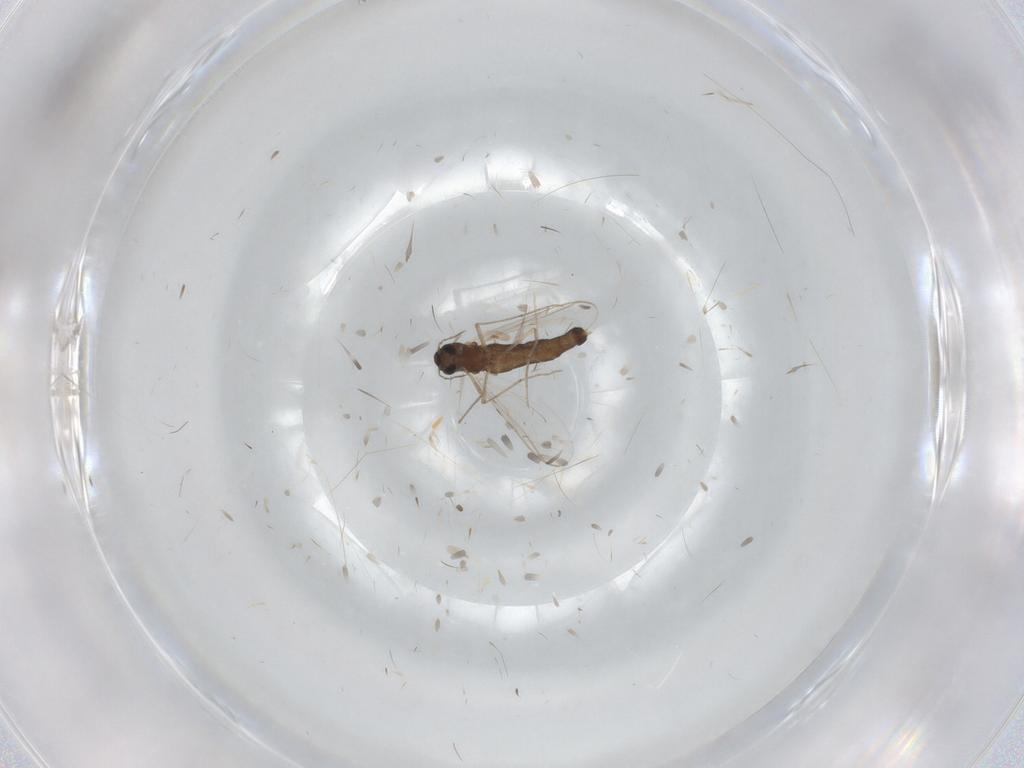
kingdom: Animalia
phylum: Arthropoda
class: Insecta
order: Diptera
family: Chironomidae
